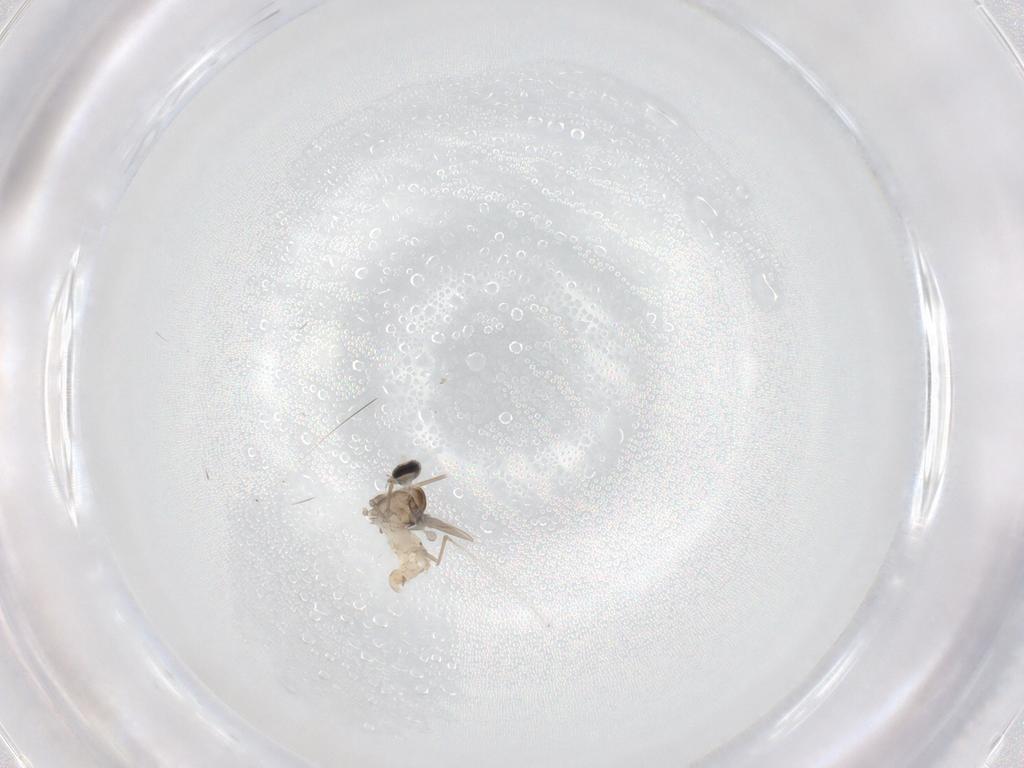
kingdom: Animalia
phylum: Arthropoda
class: Insecta
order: Diptera
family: Cecidomyiidae
